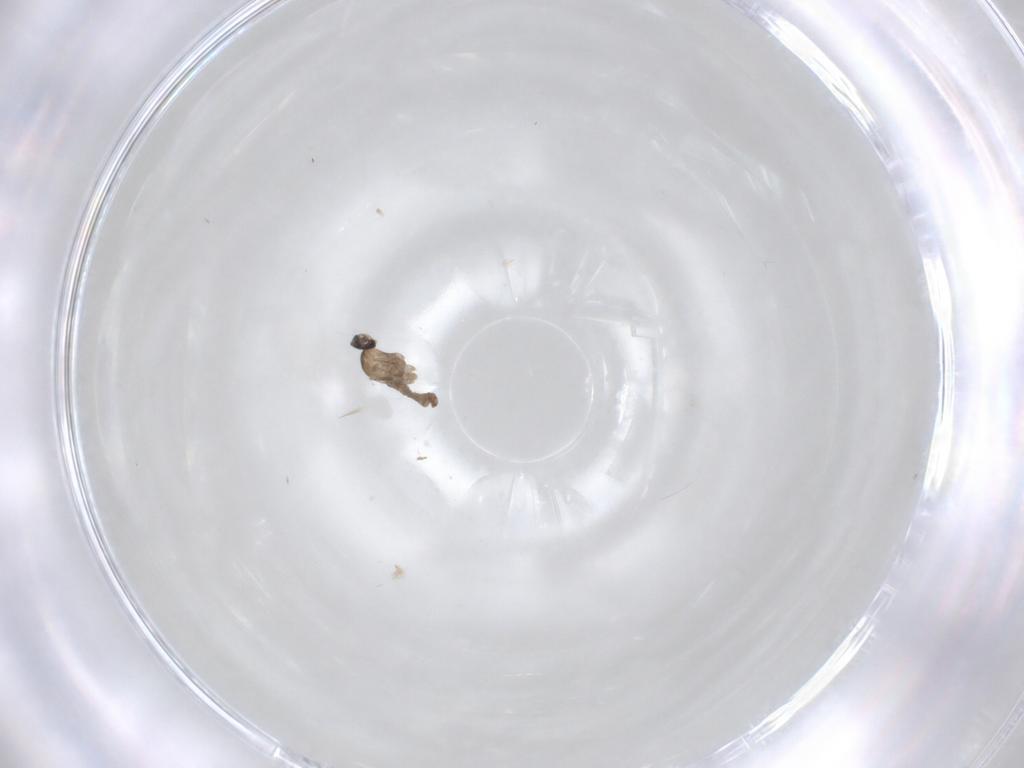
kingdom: Animalia
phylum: Arthropoda
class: Insecta
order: Diptera
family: Cecidomyiidae
